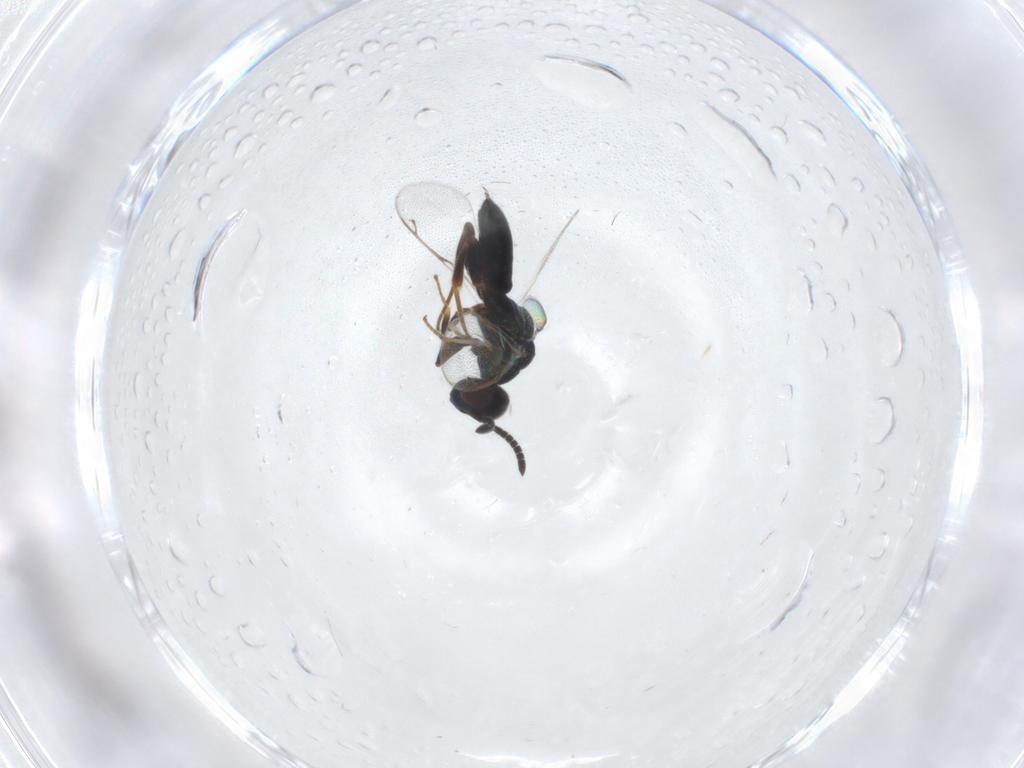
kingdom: Animalia
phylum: Arthropoda
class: Insecta
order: Hymenoptera
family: Cleonyminae
